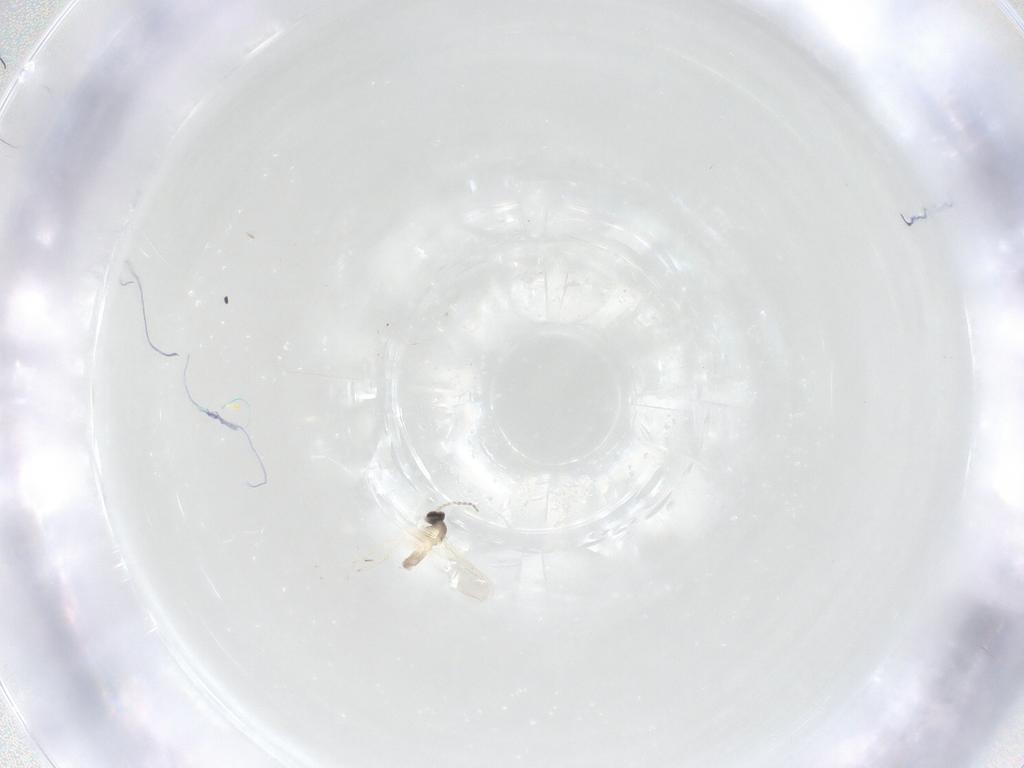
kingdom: Animalia
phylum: Arthropoda
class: Insecta
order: Diptera
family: Cecidomyiidae
